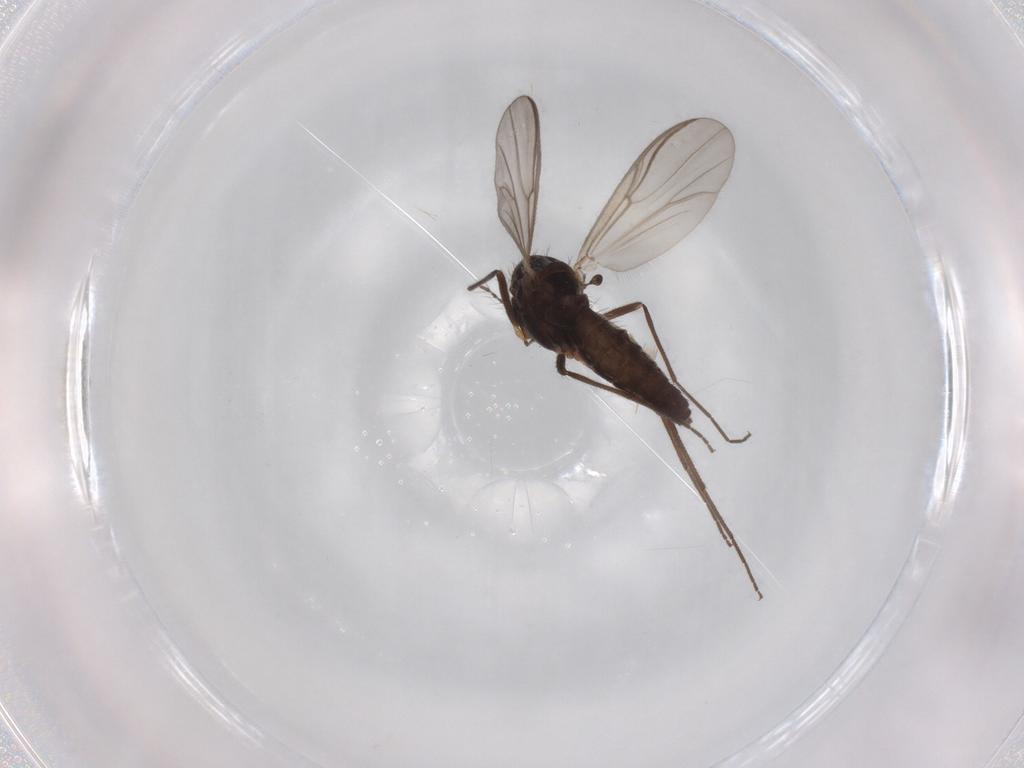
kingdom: Animalia
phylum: Arthropoda
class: Insecta
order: Diptera
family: Chironomidae
